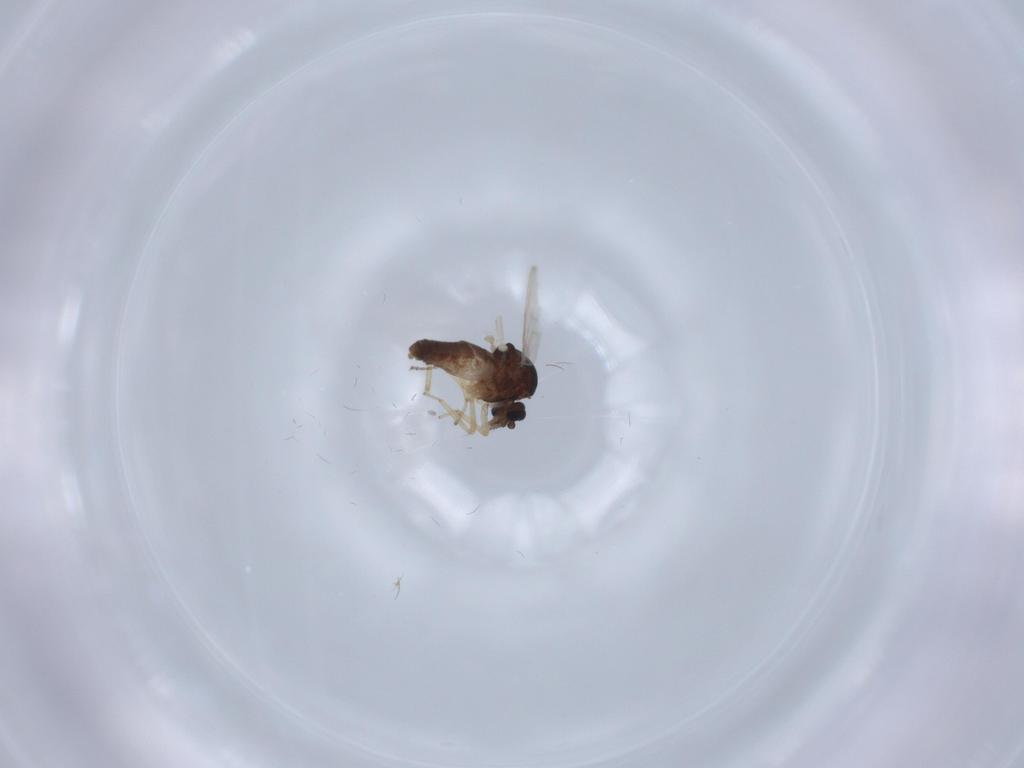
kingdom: Animalia
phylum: Arthropoda
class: Insecta
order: Diptera
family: Ceratopogonidae
